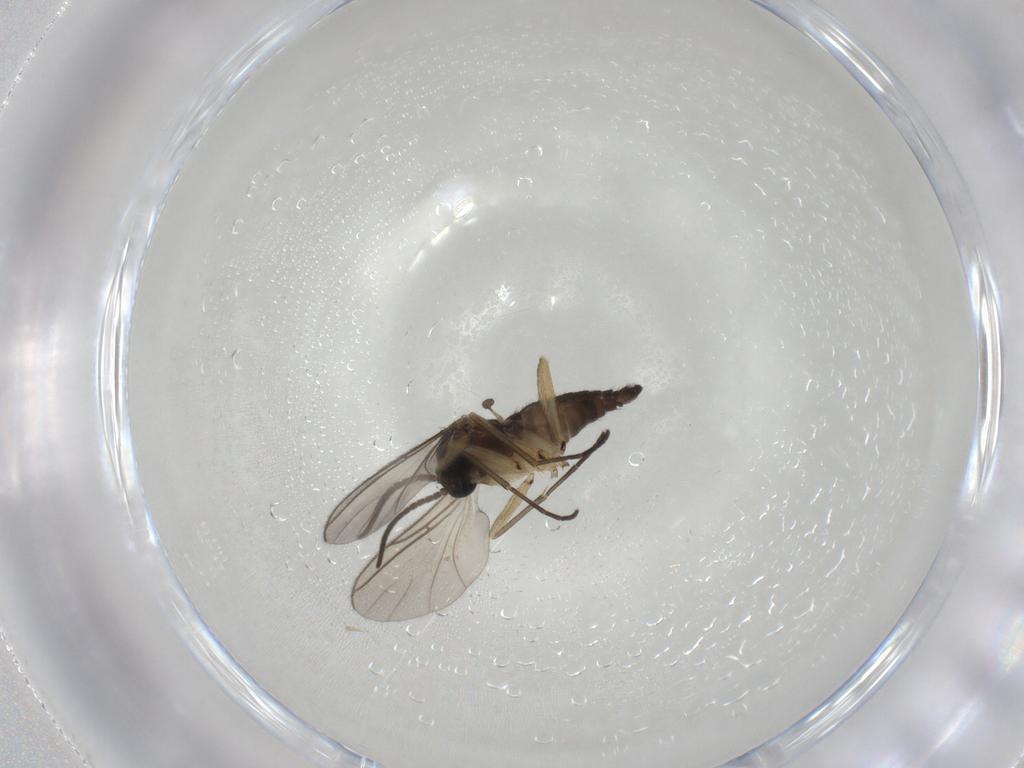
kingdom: Animalia
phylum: Arthropoda
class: Insecta
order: Diptera
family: Sciaridae
